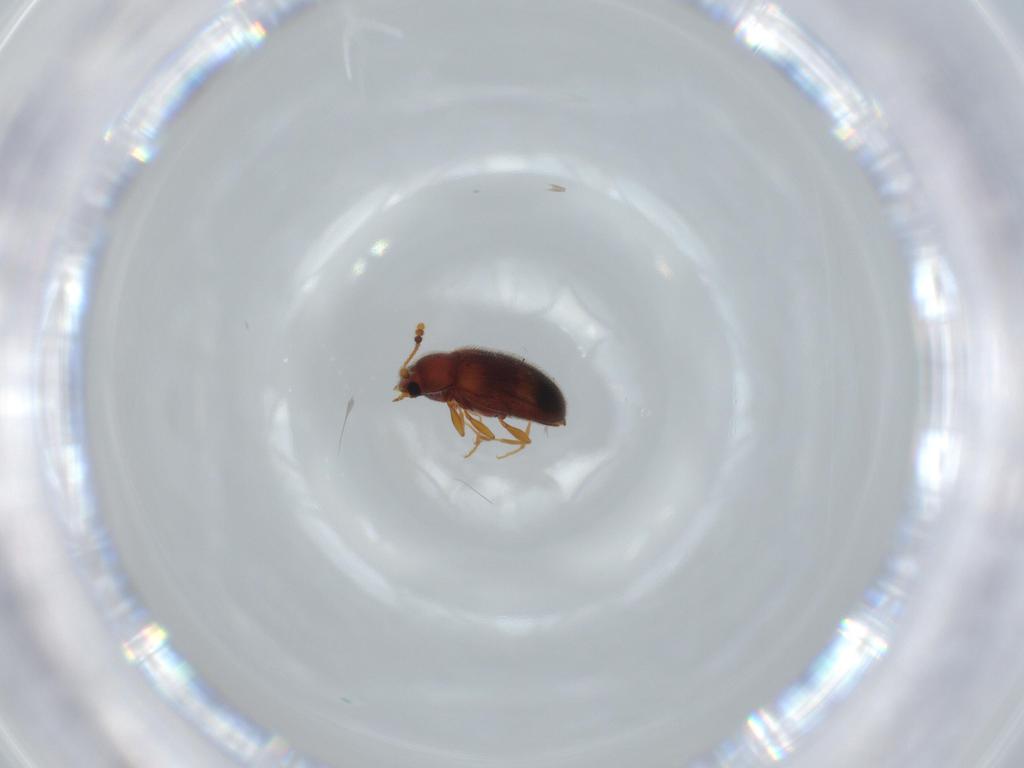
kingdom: Animalia
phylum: Arthropoda
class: Insecta
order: Coleoptera
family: Erotylidae
